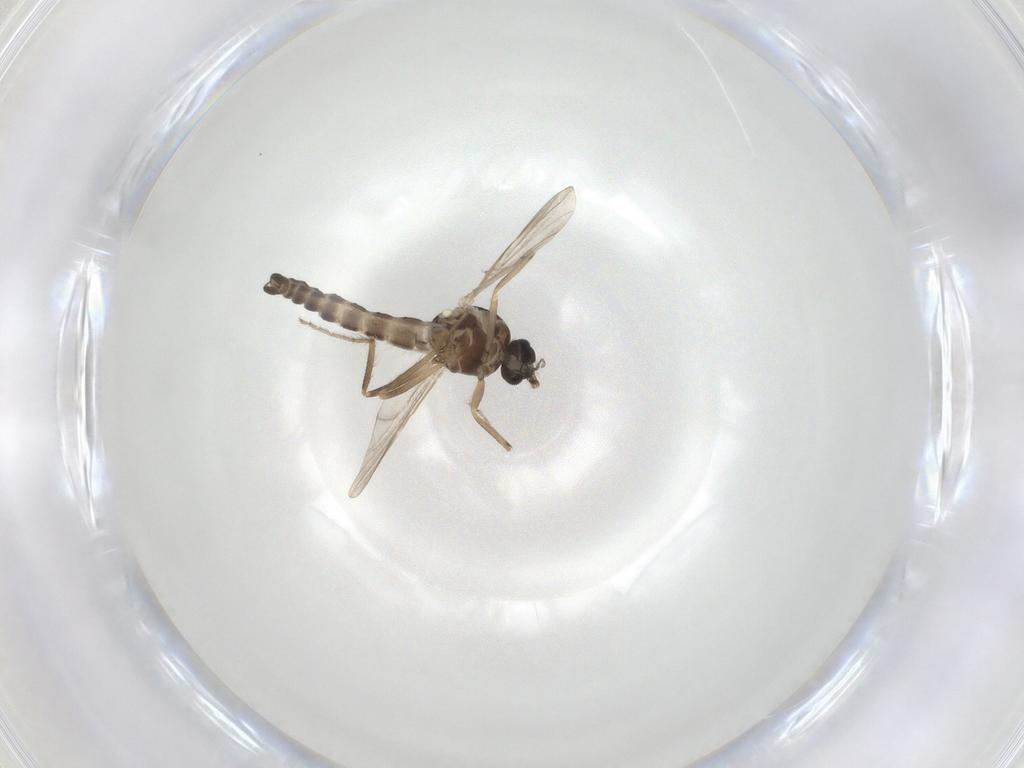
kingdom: Animalia
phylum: Arthropoda
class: Insecta
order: Diptera
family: Ceratopogonidae
